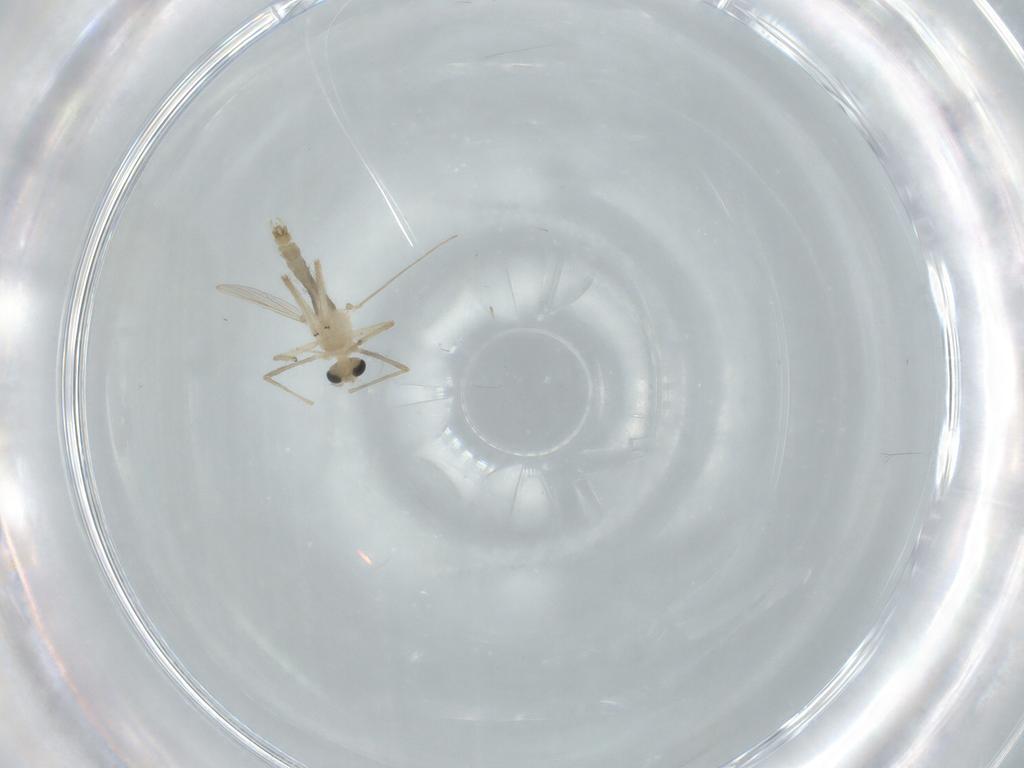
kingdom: Animalia
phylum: Arthropoda
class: Insecta
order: Diptera
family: Chironomidae
